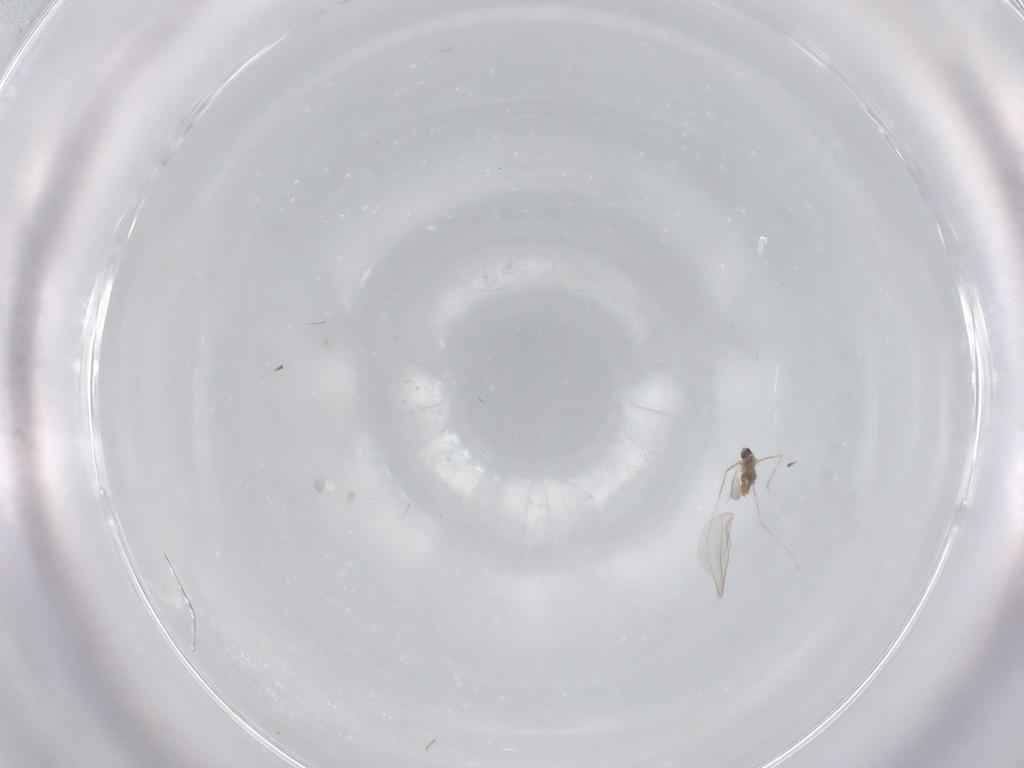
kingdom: Animalia
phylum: Arthropoda
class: Insecta
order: Diptera
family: Cecidomyiidae
